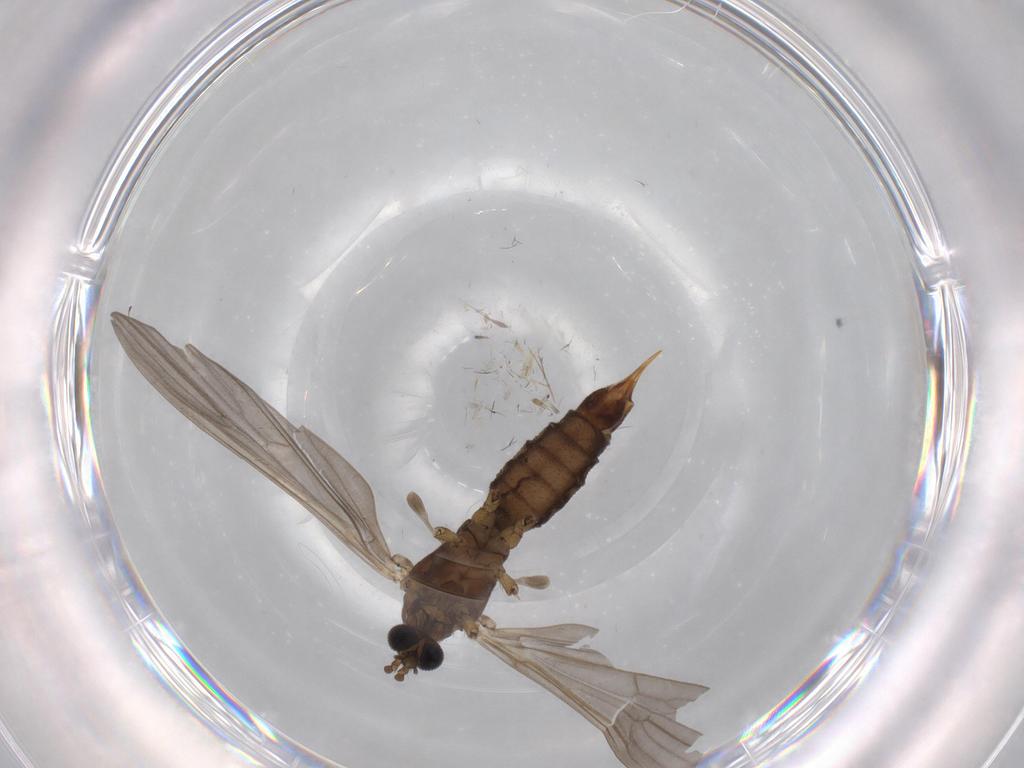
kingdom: Animalia
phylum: Arthropoda
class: Insecta
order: Diptera
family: Limoniidae
